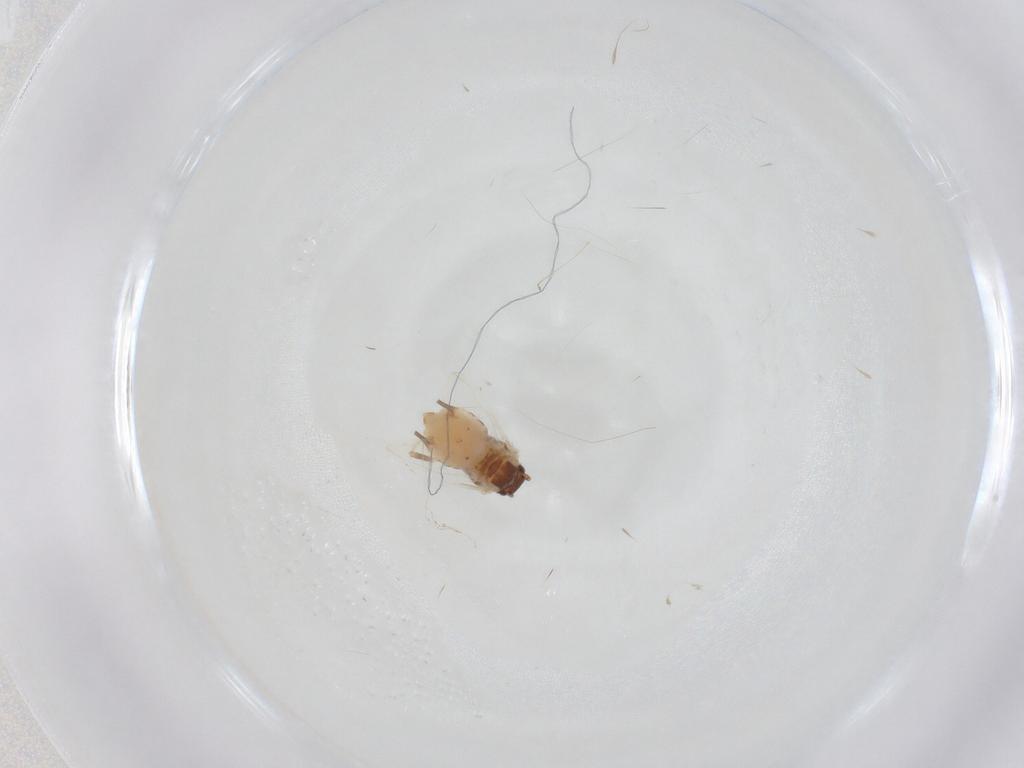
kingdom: Animalia
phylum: Arthropoda
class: Insecta
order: Hemiptera
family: Aphididae
